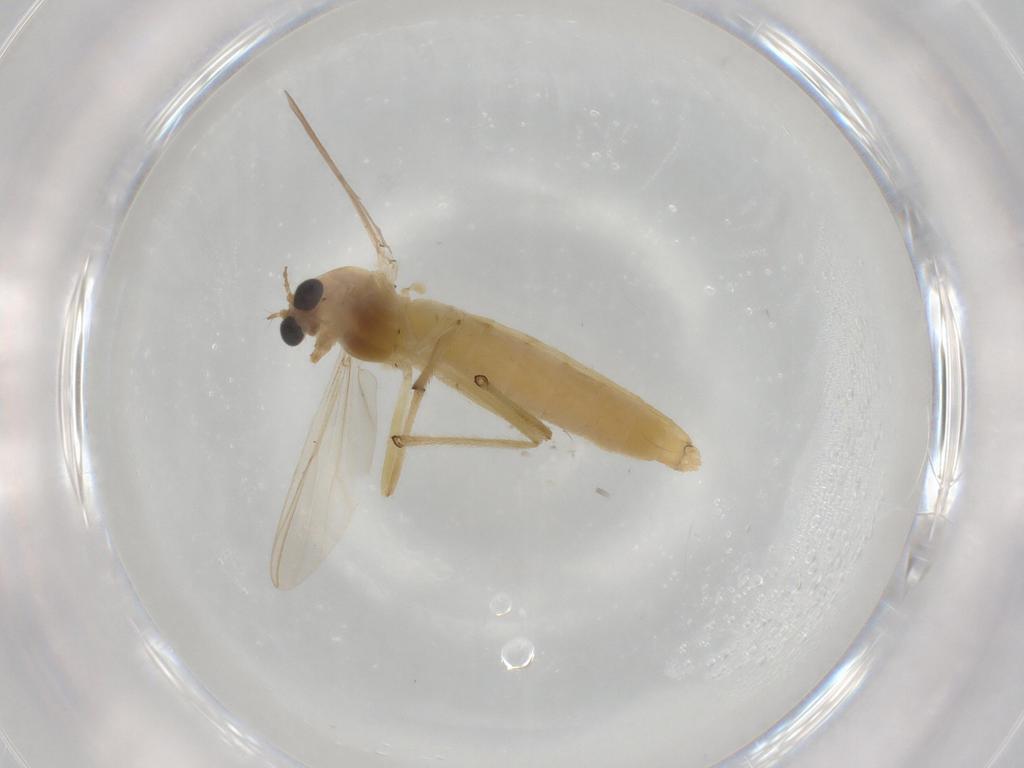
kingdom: Animalia
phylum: Arthropoda
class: Insecta
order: Diptera
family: Chironomidae
